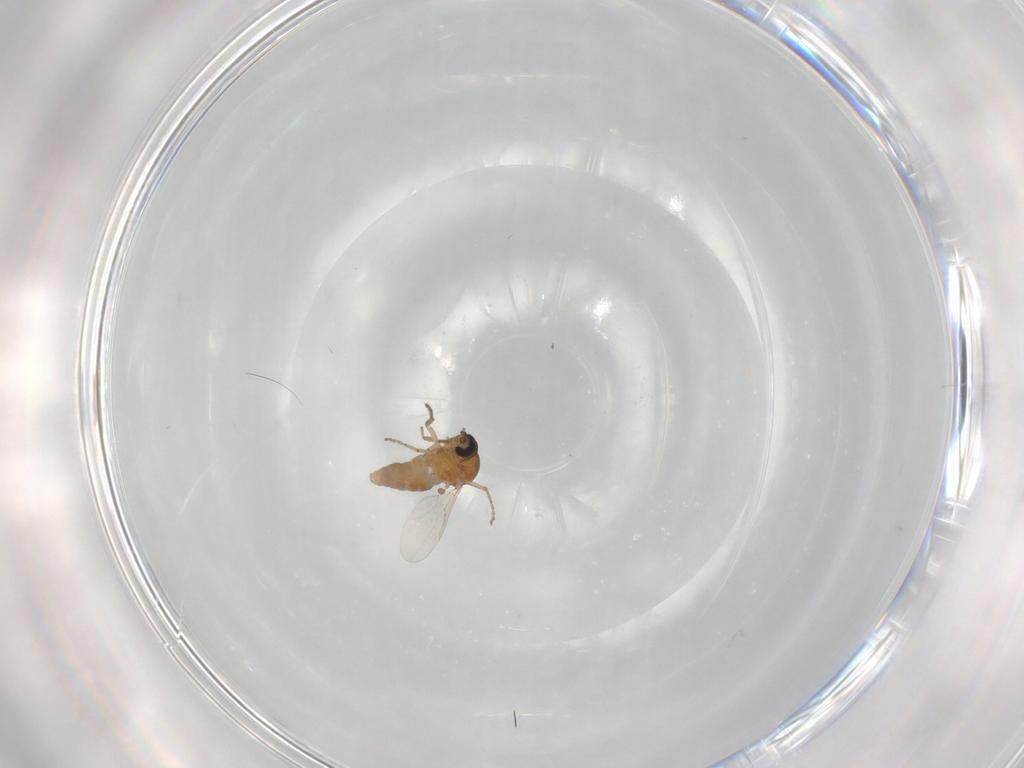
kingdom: Animalia
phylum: Arthropoda
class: Insecta
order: Diptera
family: Ceratopogonidae
